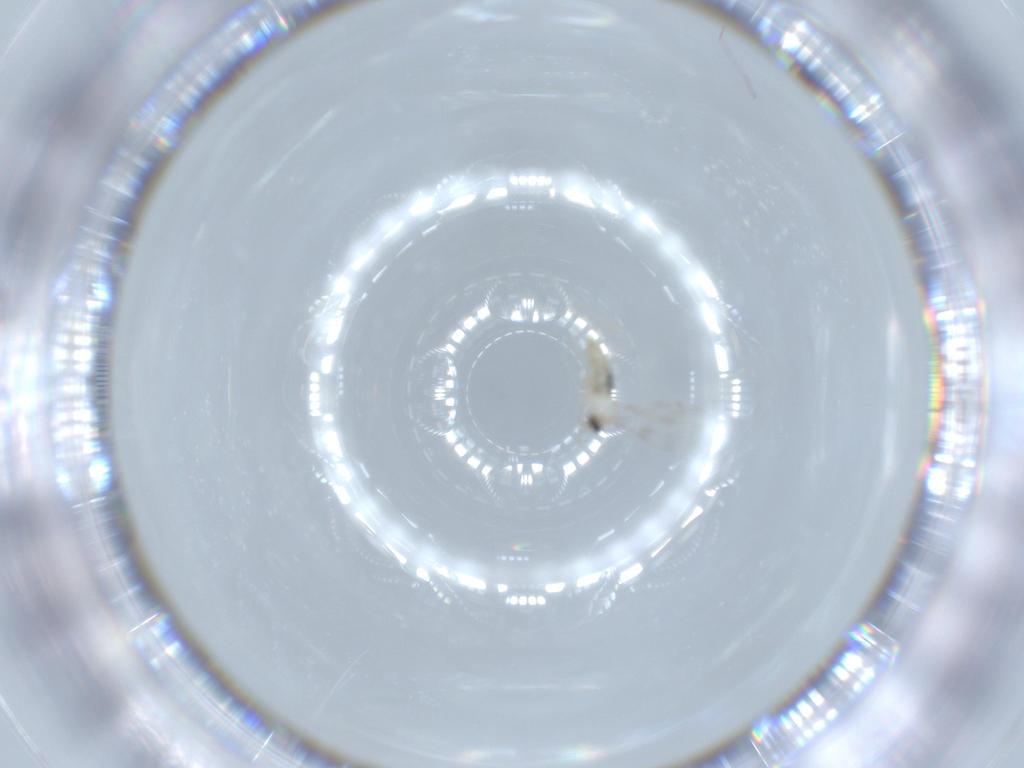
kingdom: Animalia
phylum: Arthropoda
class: Insecta
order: Diptera
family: Cecidomyiidae
